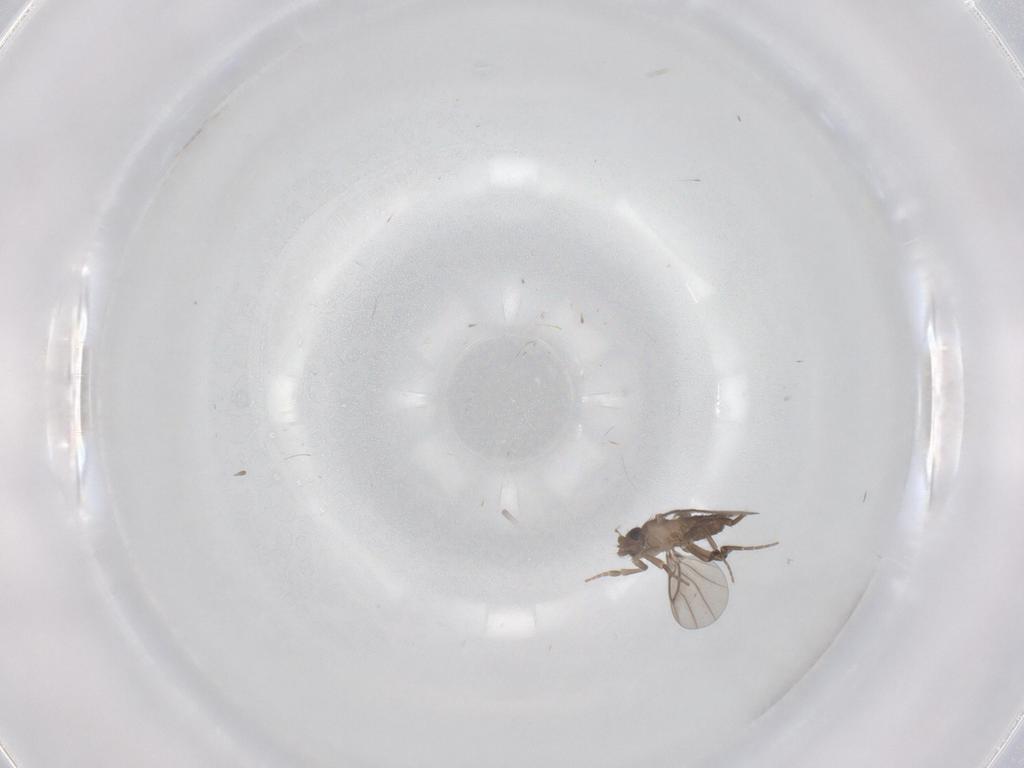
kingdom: Animalia
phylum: Arthropoda
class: Insecta
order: Diptera
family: Phoridae
